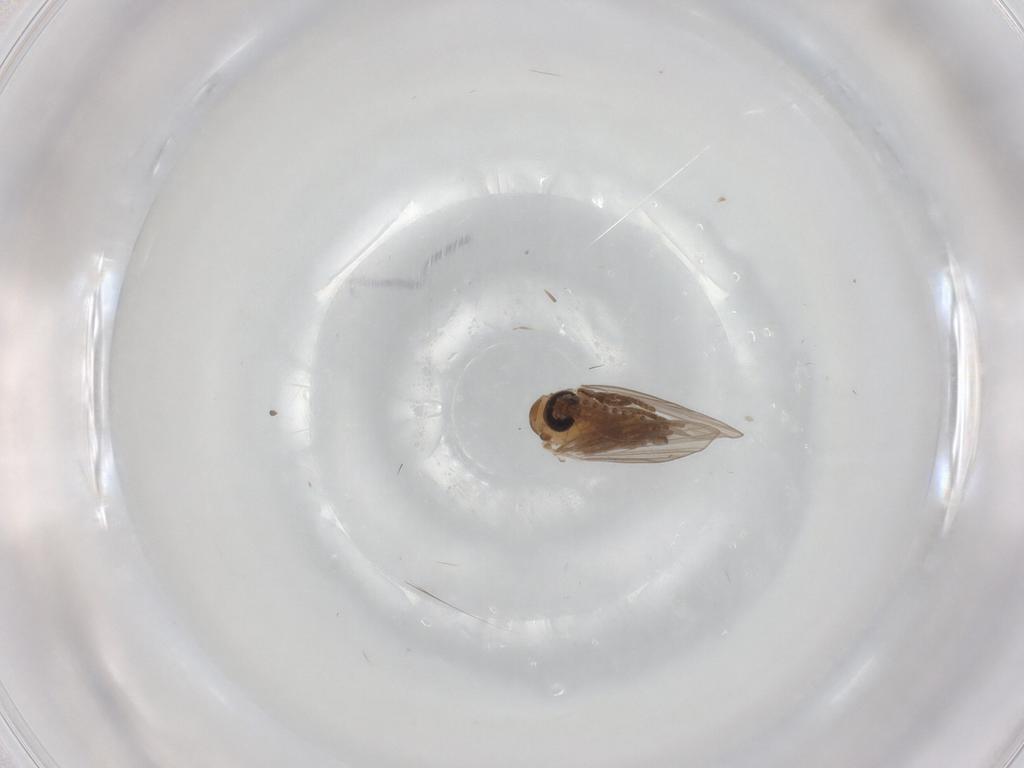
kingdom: Animalia
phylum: Arthropoda
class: Insecta
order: Diptera
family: Psychodidae
